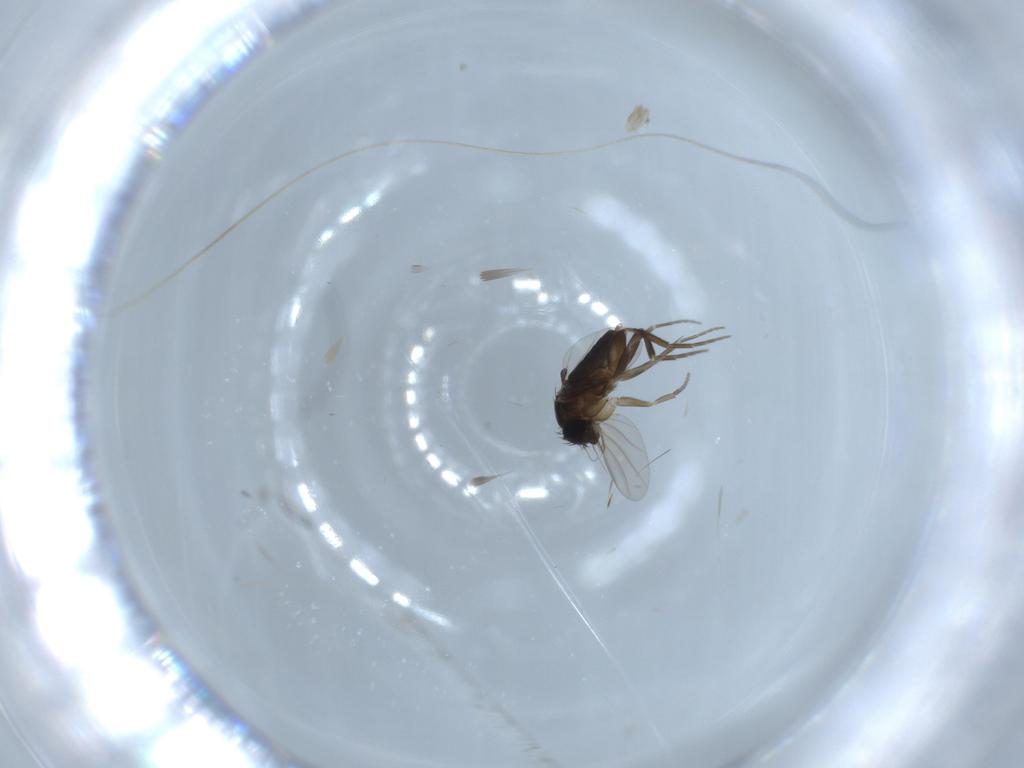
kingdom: Animalia
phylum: Arthropoda
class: Insecta
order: Diptera
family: Phoridae
